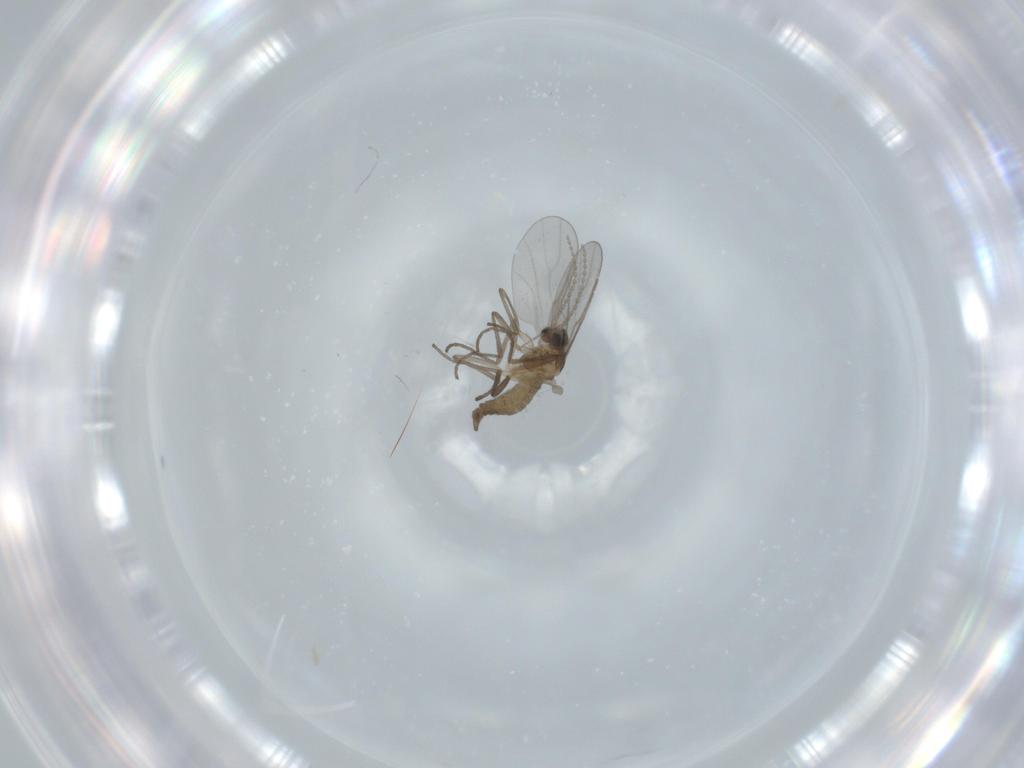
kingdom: Animalia
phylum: Arthropoda
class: Insecta
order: Diptera
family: Cecidomyiidae
